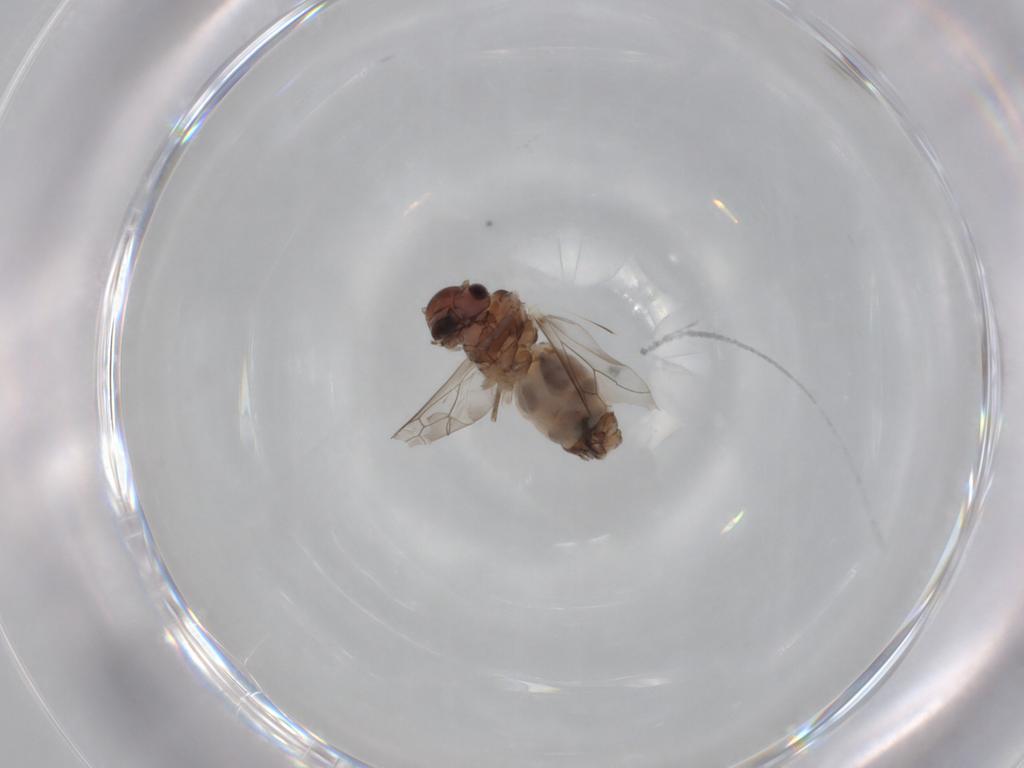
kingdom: Animalia
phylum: Arthropoda
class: Insecta
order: Psocodea
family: Peripsocidae
